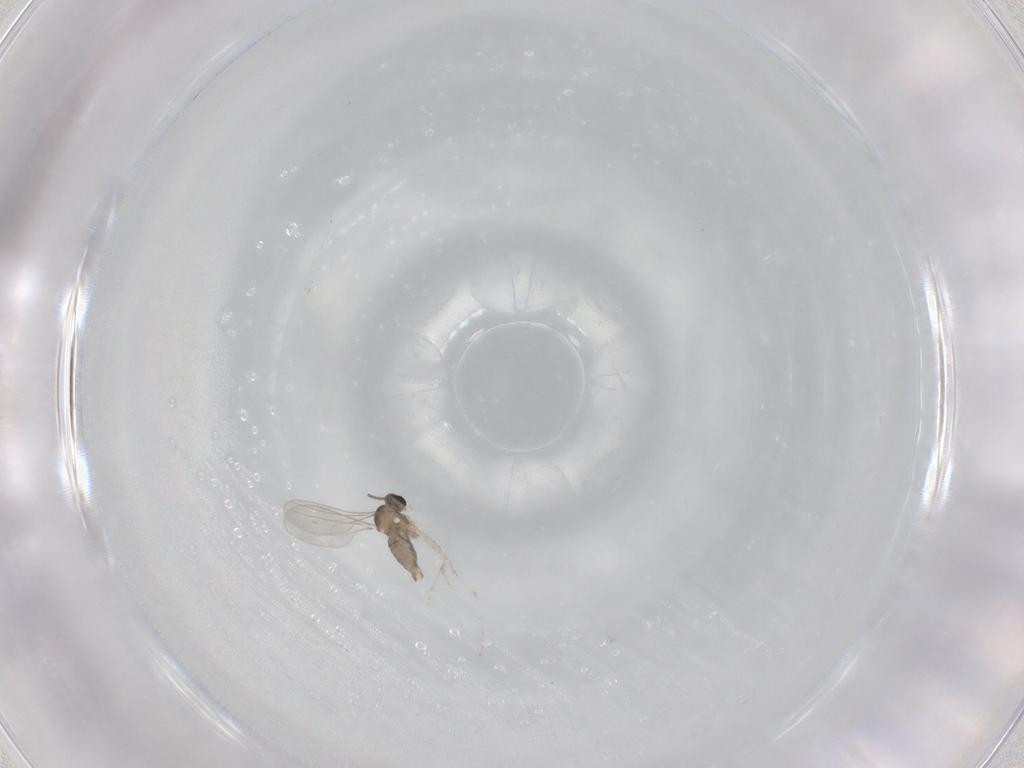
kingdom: Animalia
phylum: Arthropoda
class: Insecta
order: Diptera
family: Cecidomyiidae
